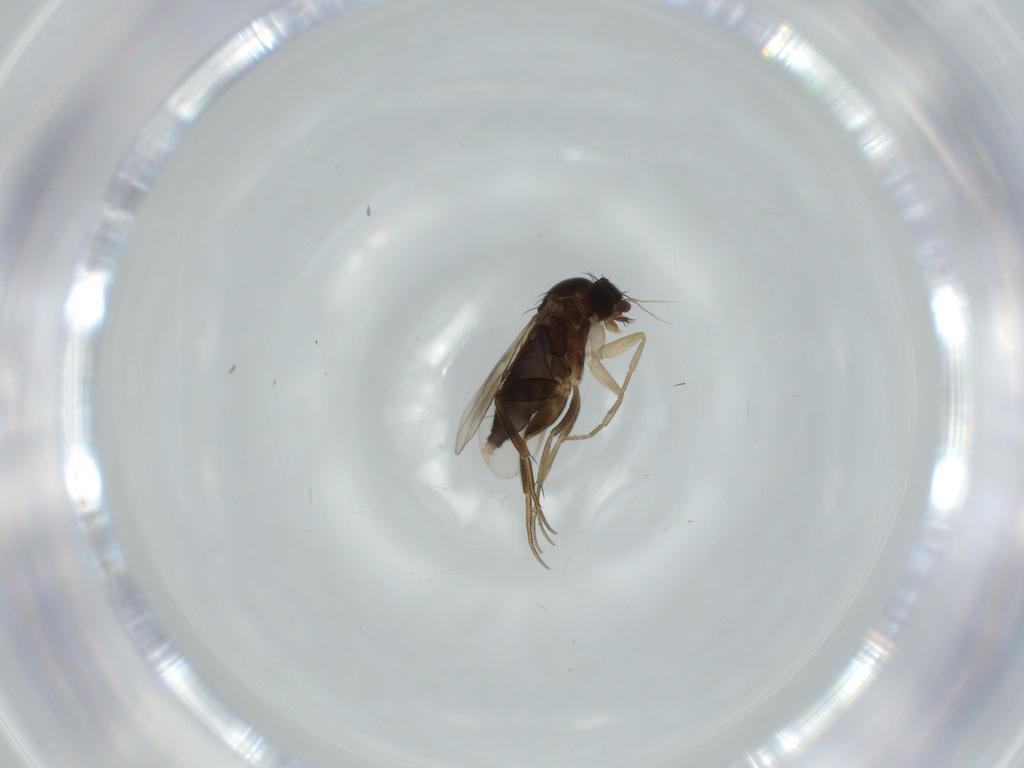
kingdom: Animalia
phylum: Arthropoda
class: Insecta
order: Diptera
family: Phoridae
